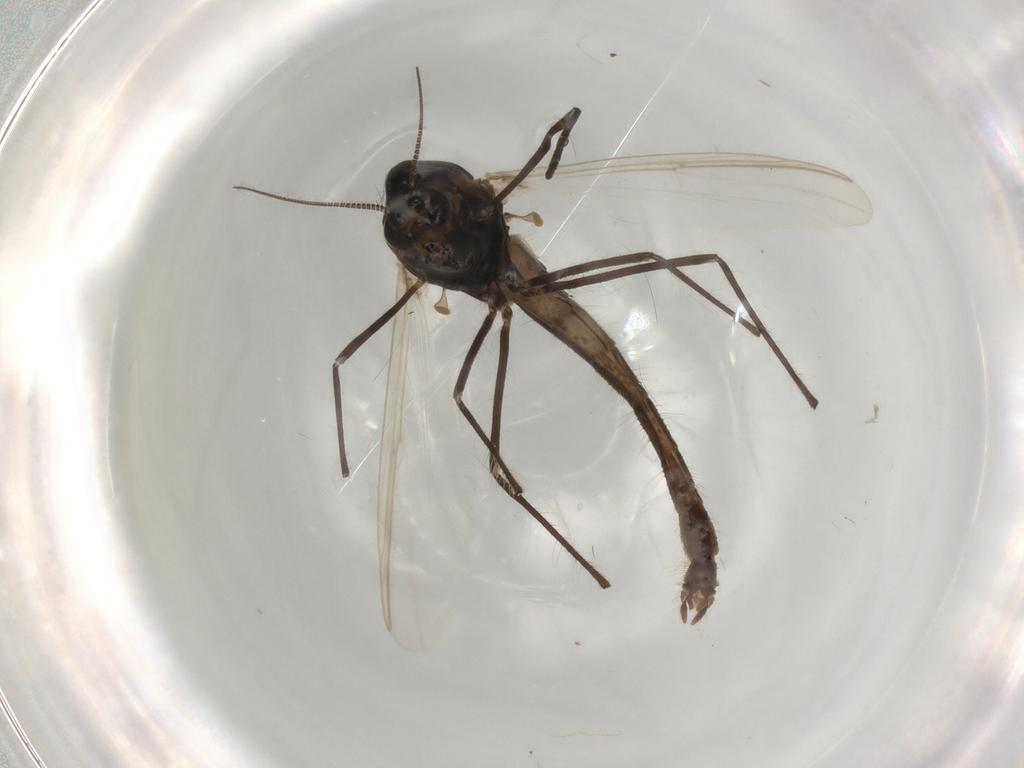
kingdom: Animalia
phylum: Arthropoda
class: Insecta
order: Diptera
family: Chironomidae
